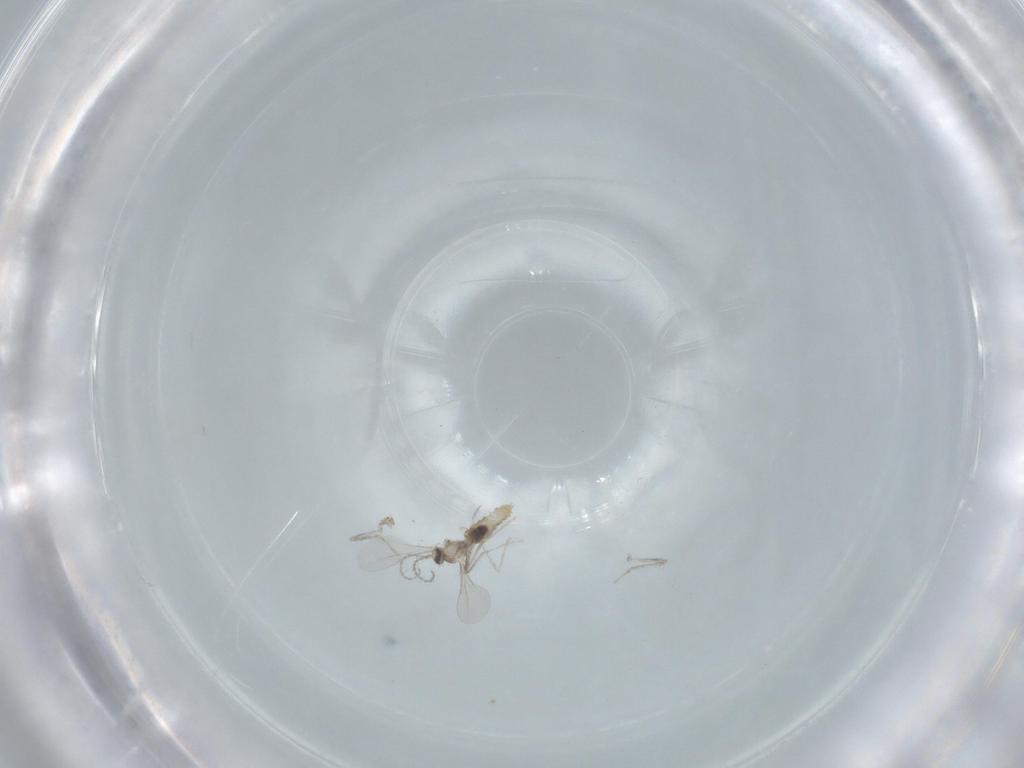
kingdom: Animalia
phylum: Arthropoda
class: Insecta
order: Diptera
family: Cecidomyiidae
